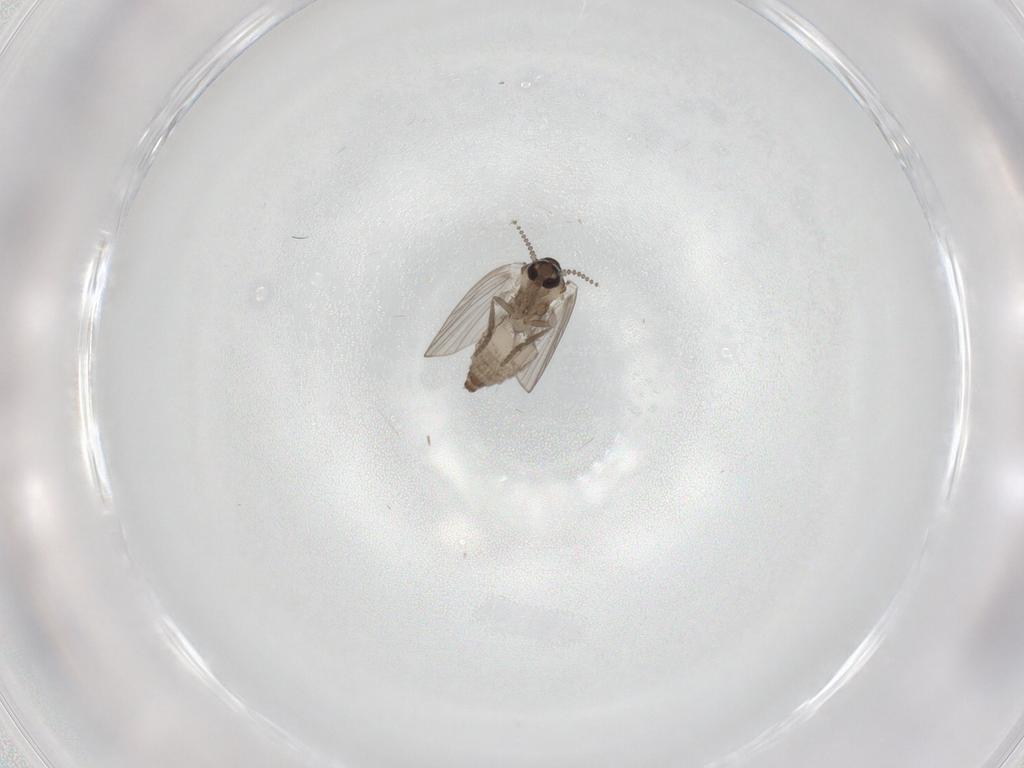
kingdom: Animalia
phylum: Arthropoda
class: Insecta
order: Diptera
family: Psychodidae
